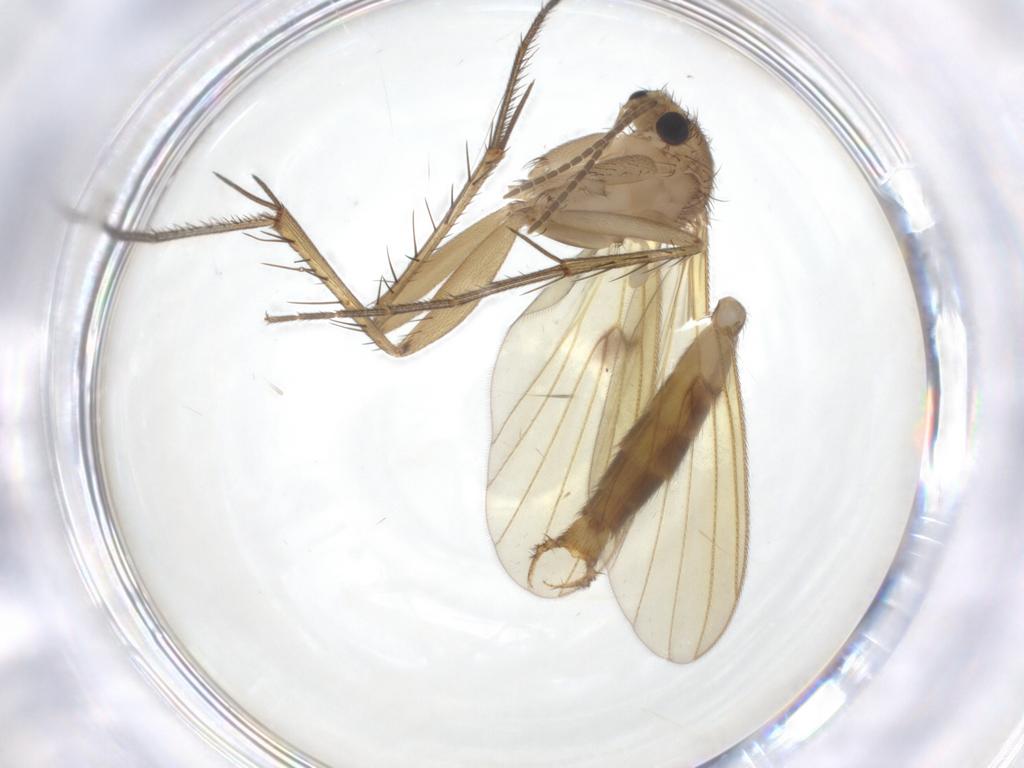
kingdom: Animalia
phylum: Arthropoda
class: Insecta
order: Diptera
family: Mycetophilidae
